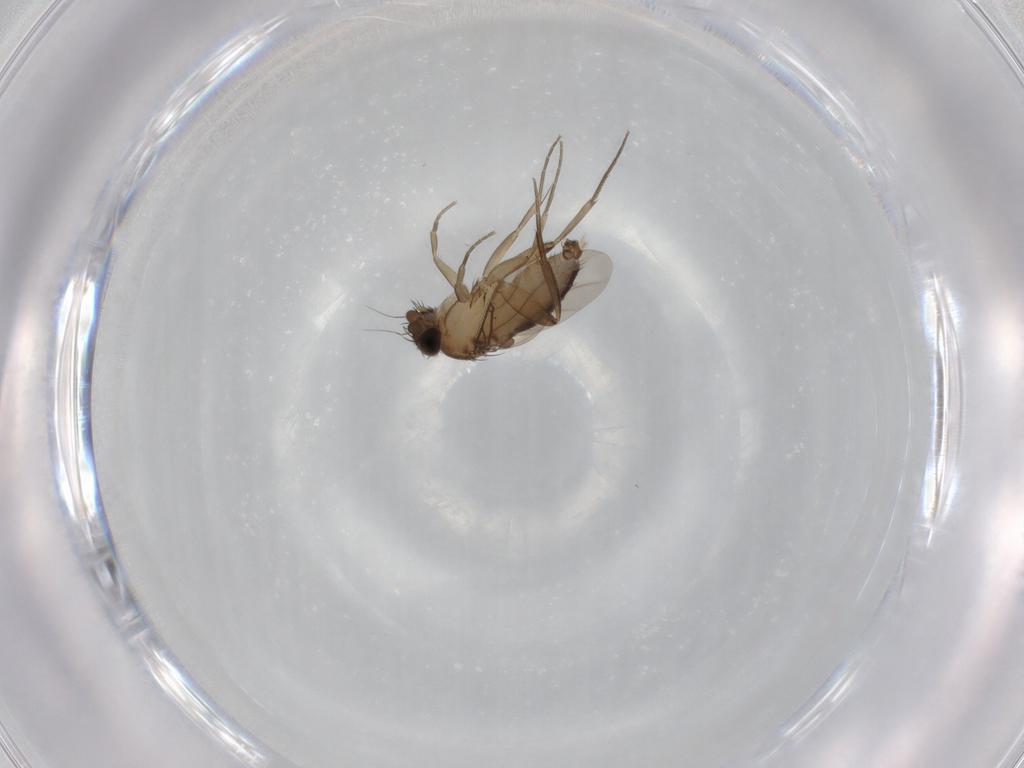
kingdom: Animalia
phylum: Arthropoda
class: Insecta
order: Diptera
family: Phoridae
